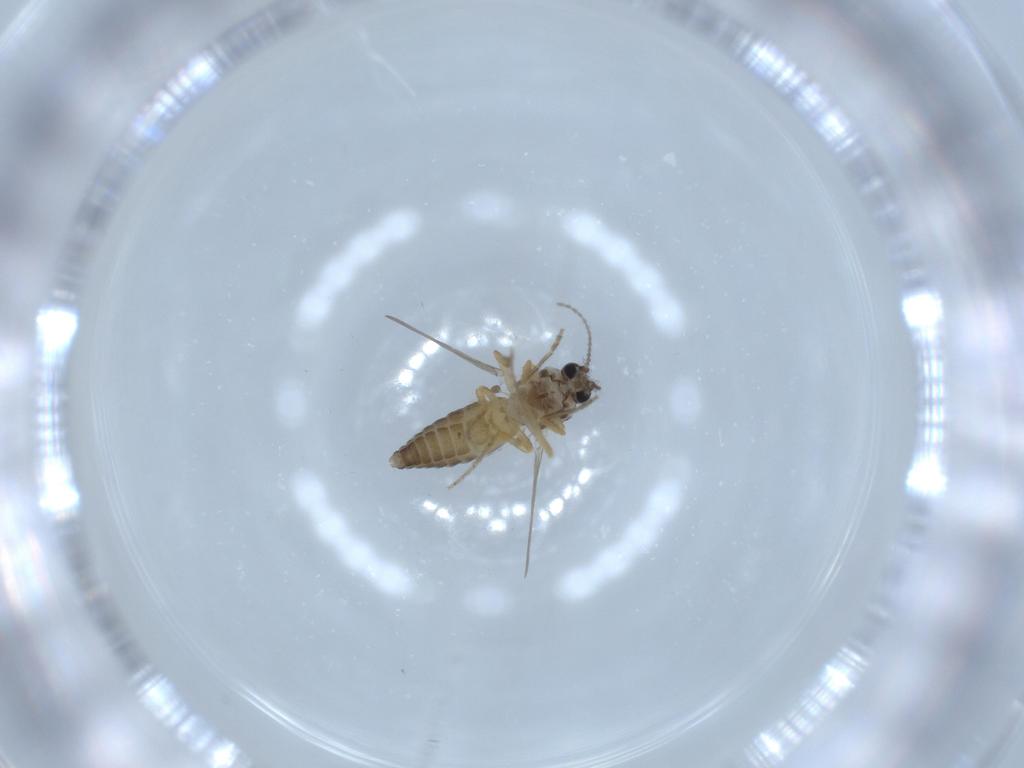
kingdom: Animalia
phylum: Arthropoda
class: Insecta
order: Diptera
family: Ceratopogonidae
